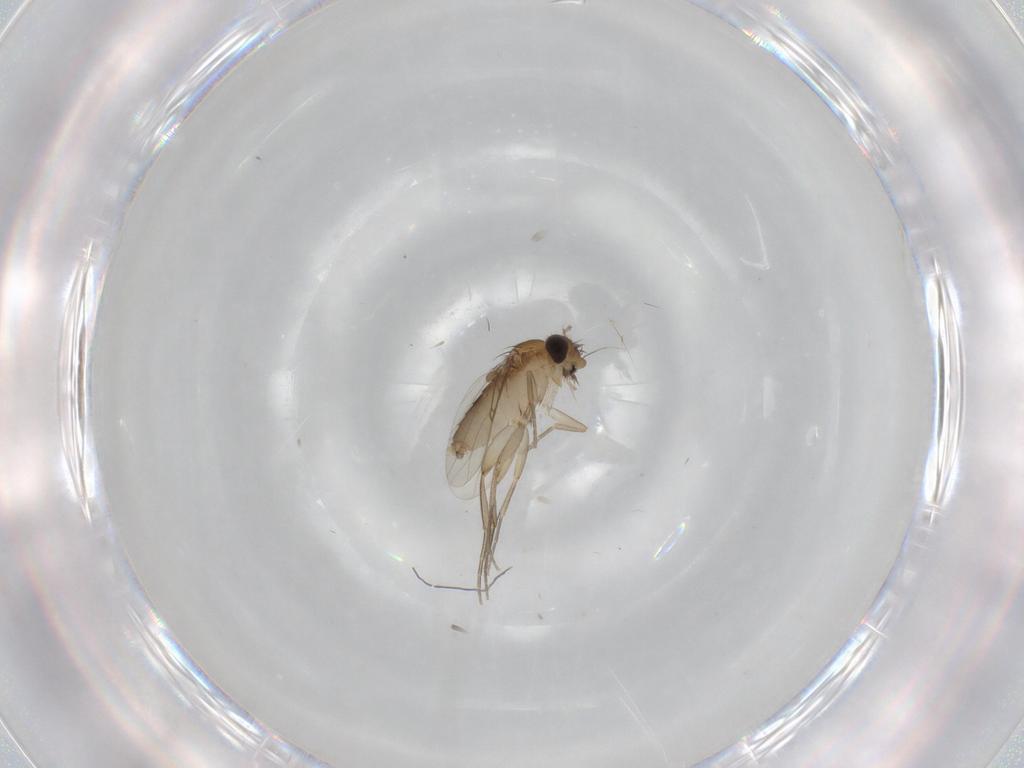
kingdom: Animalia
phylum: Arthropoda
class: Insecta
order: Diptera
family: Phoridae
